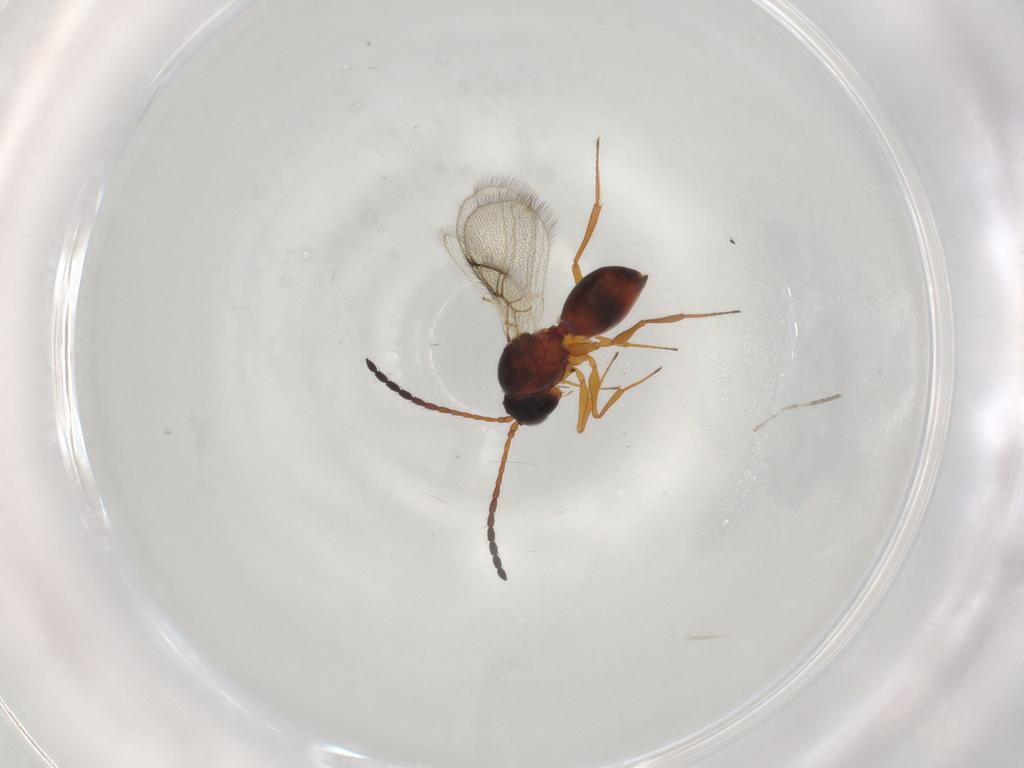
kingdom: Animalia
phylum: Arthropoda
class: Insecta
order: Hymenoptera
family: Figitidae
